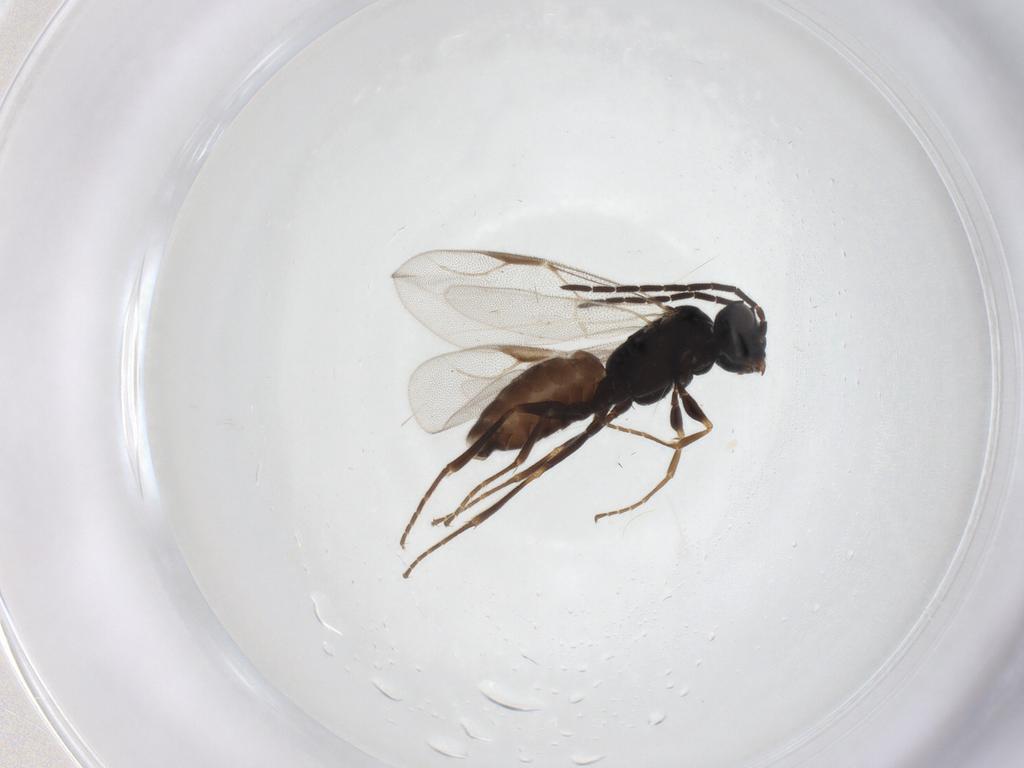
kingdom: Animalia
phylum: Arthropoda
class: Insecta
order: Hymenoptera
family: Dryinidae
